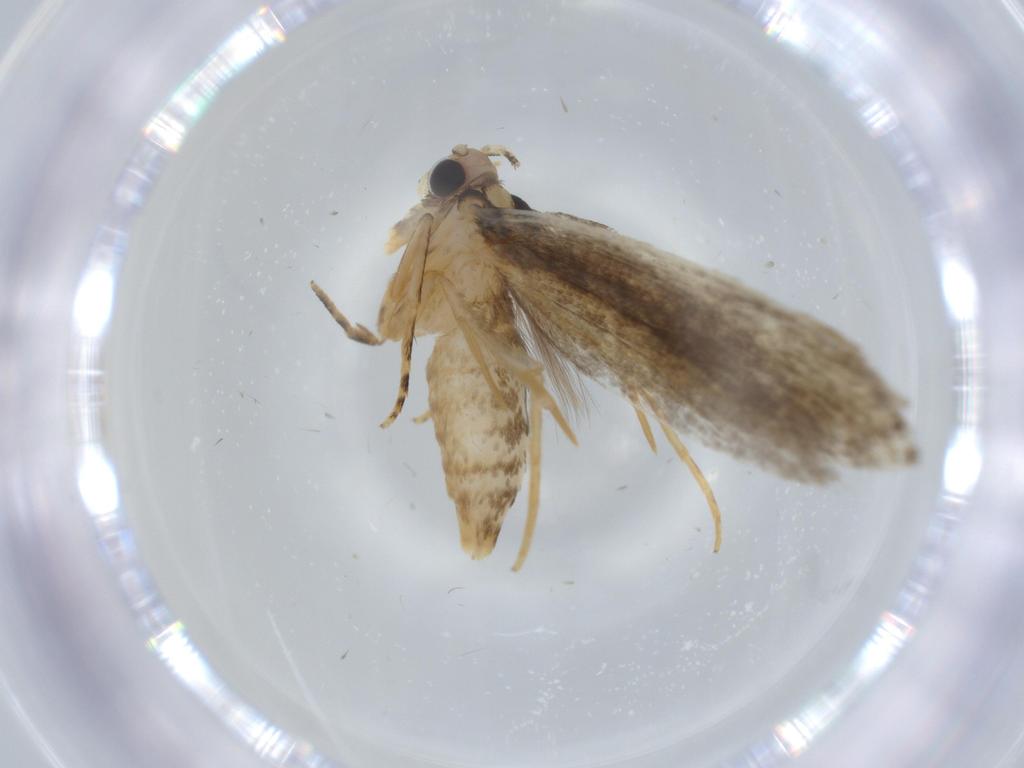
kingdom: Animalia
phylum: Arthropoda
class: Insecta
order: Lepidoptera
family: Tineidae
